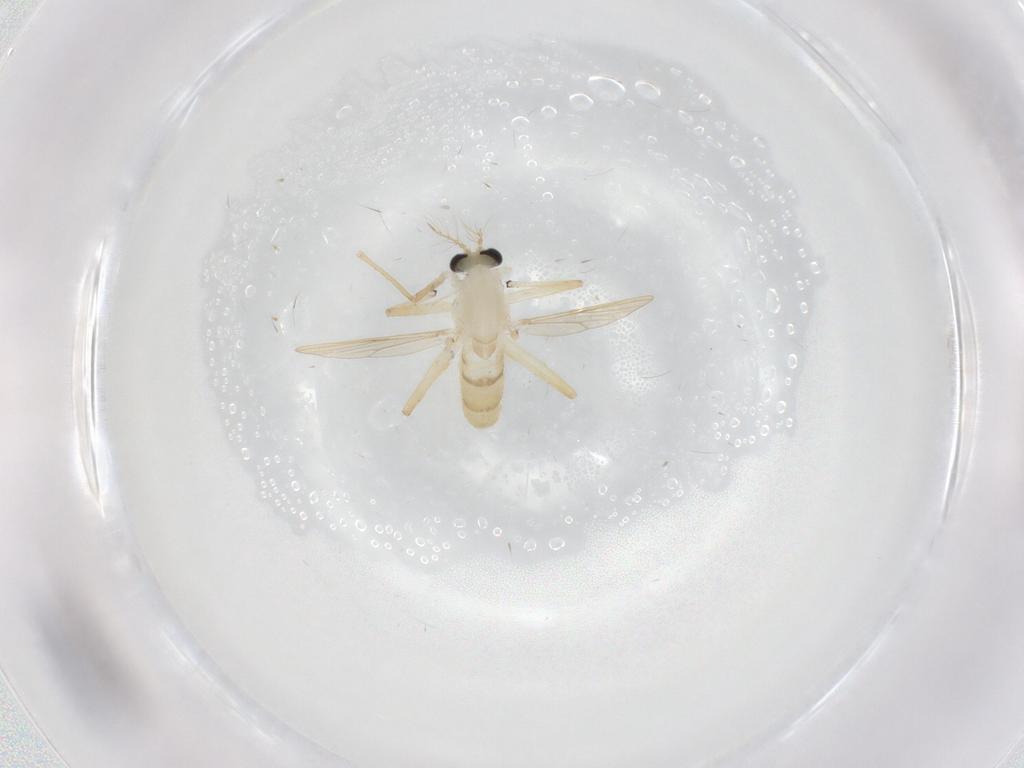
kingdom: Animalia
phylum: Arthropoda
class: Insecta
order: Diptera
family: Chironomidae
